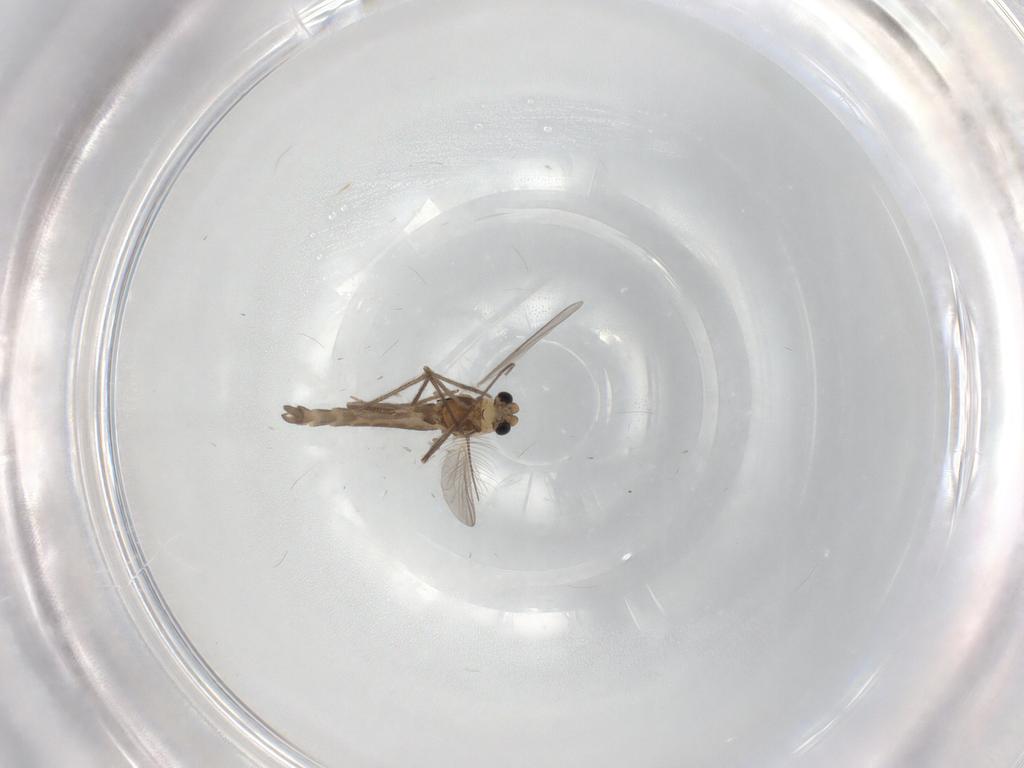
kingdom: Animalia
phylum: Arthropoda
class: Insecta
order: Diptera
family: Chironomidae
